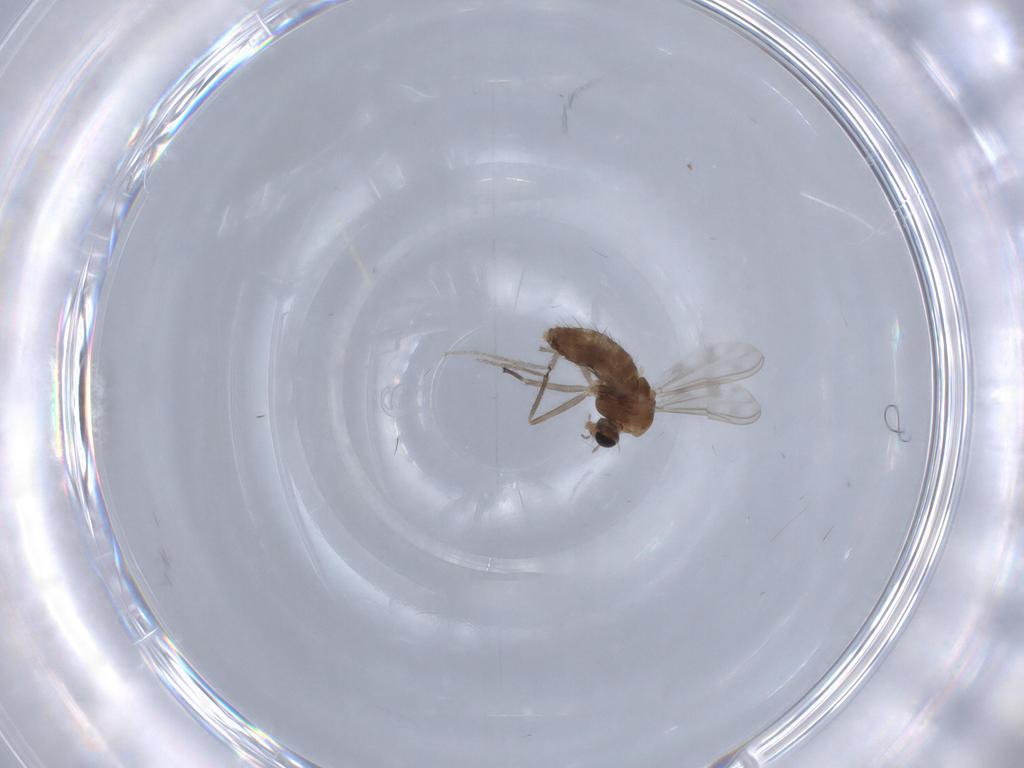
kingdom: Animalia
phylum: Arthropoda
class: Insecta
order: Diptera
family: Chironomidae
